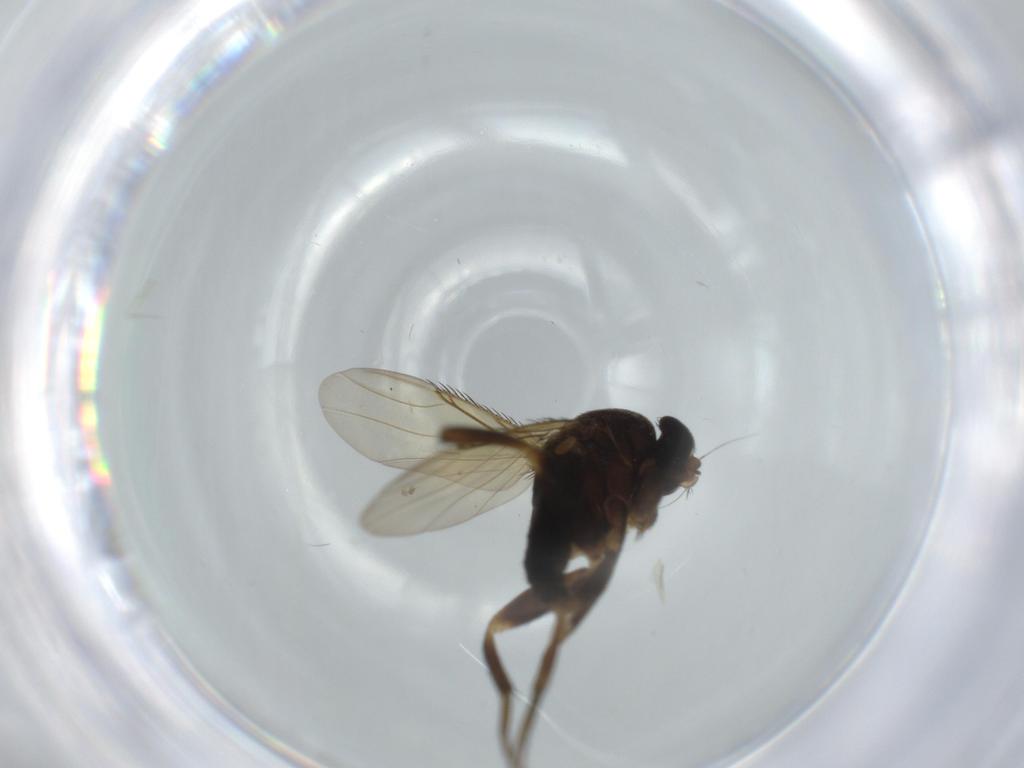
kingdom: Animalia
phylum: Arthropoda
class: Insecta
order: Diptera
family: Phoridae
